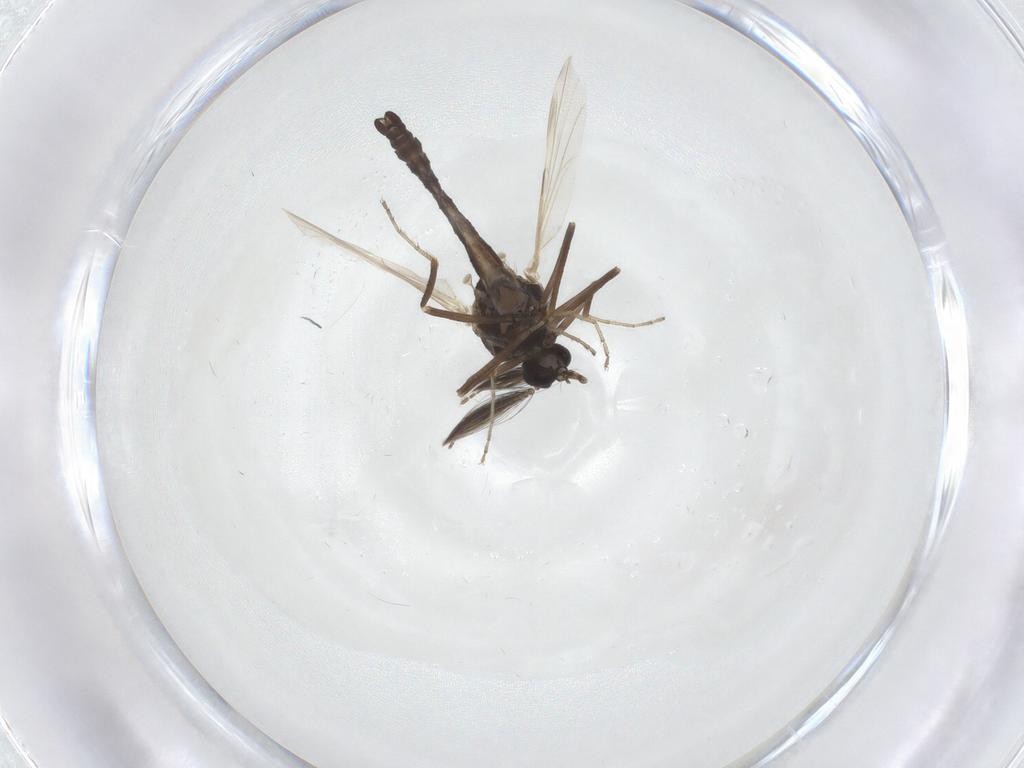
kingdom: Animalia
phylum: Arthropoda
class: Insecta
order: Diptera
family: Ceratopogonidae
